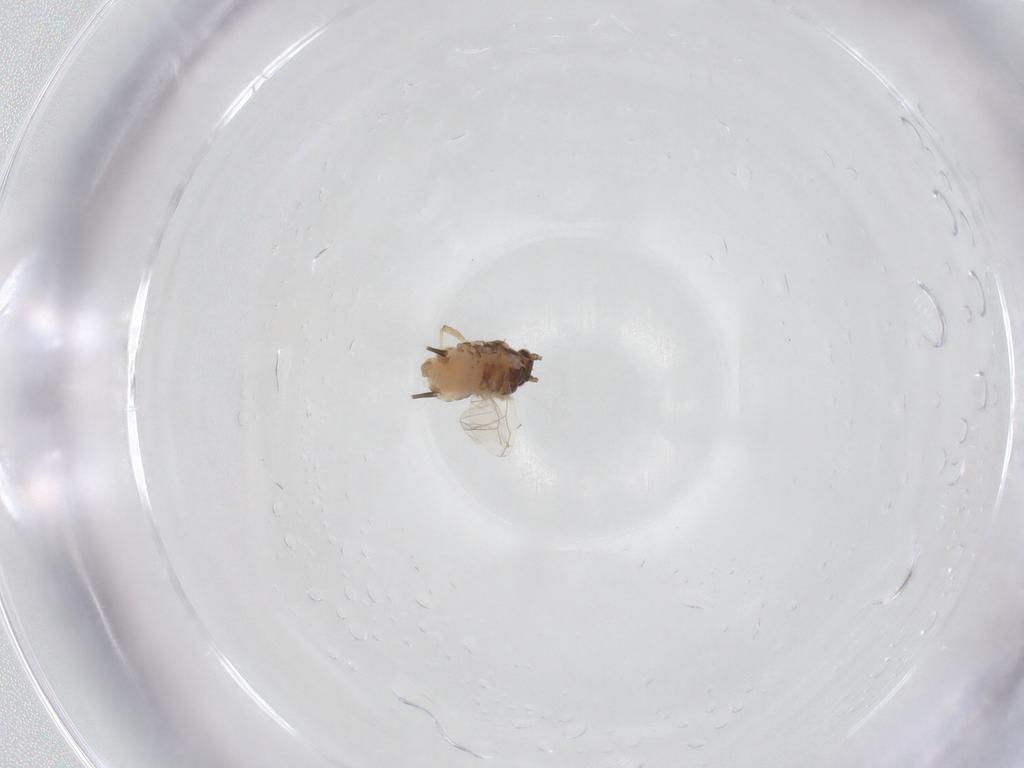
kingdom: Animalia
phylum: Arthropoda
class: Insecta
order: Hemiptera
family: Aphididae
